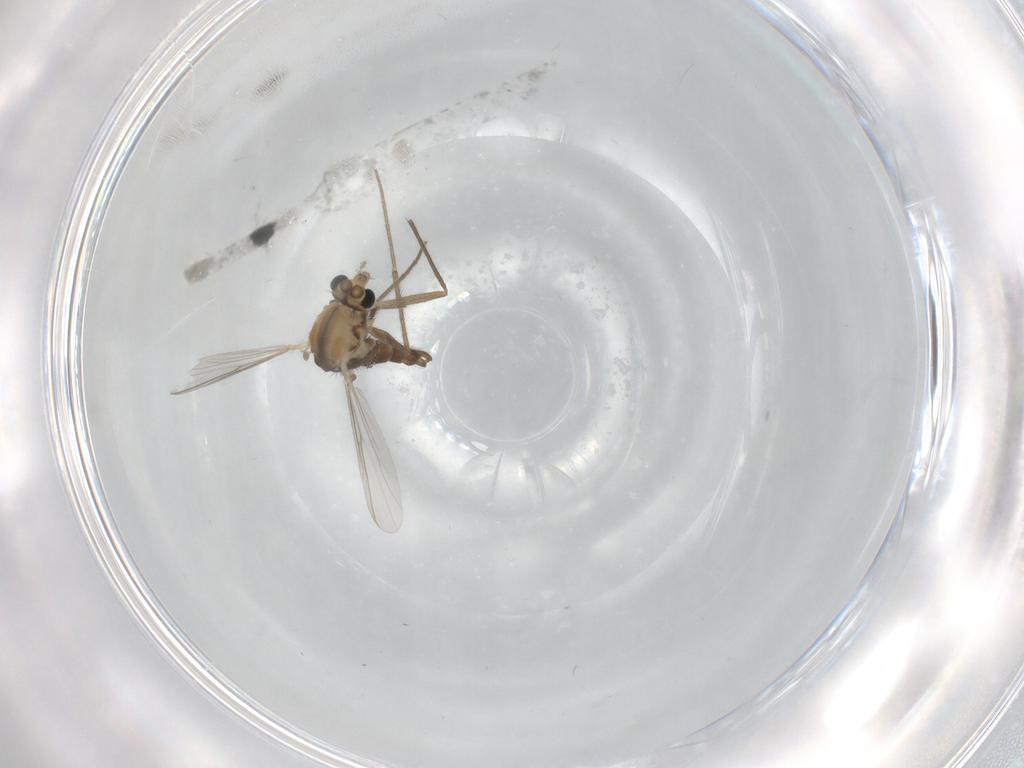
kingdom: Animalia
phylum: Arthropoda
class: Insecta
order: Diptera
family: Chironomidae
